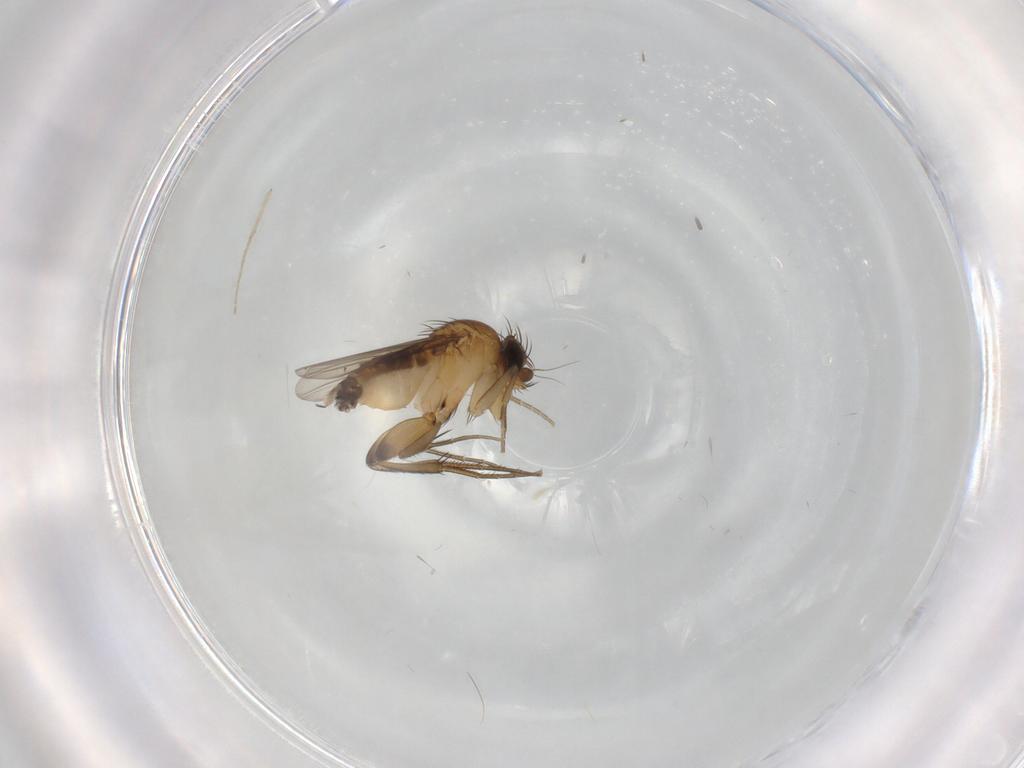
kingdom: Animalia
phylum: Arthropoda
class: Insecta
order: Diptera
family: Phoridae
